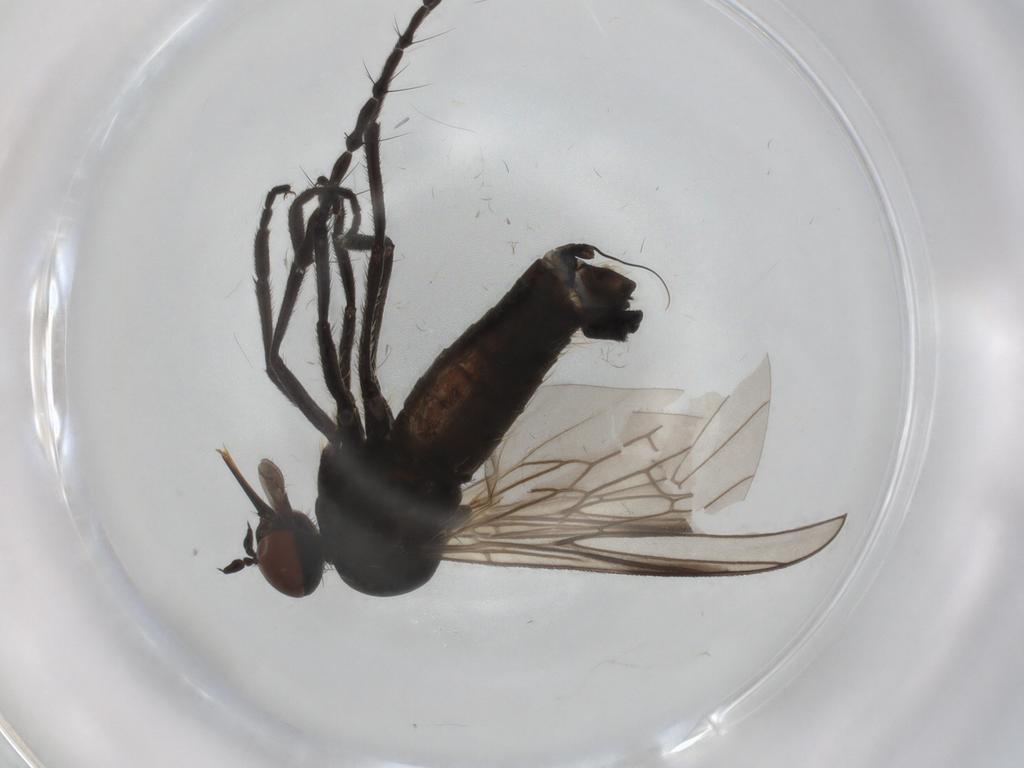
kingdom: Animalia
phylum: Arthropoda
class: Insecta
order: Diptera
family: Empididae
